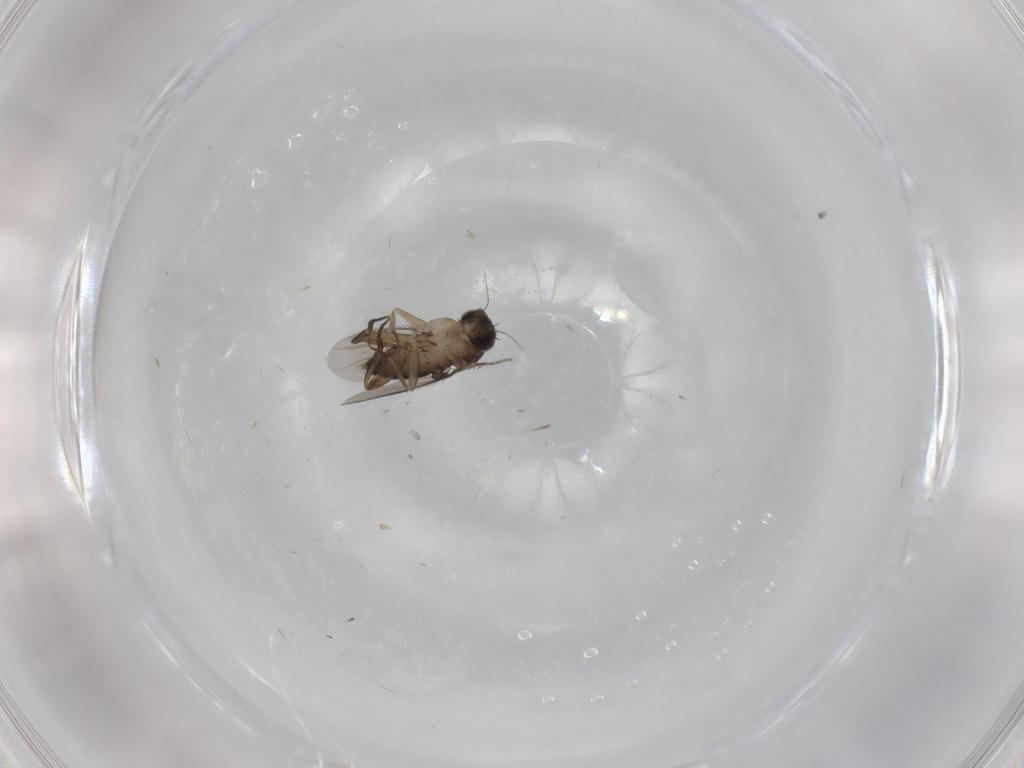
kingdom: Animalia
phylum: Arthropoda
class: Insecta
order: Diptera
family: Phoridae
